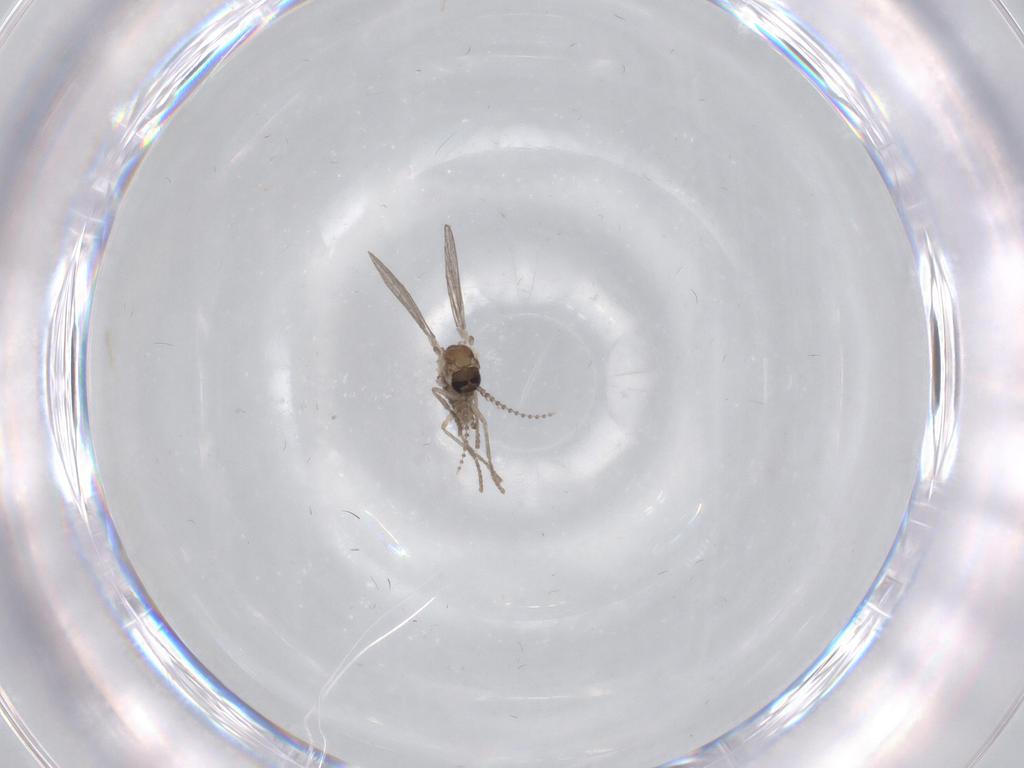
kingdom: Animalia
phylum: Arthropoda
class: Insecta
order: Diptera
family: Psychodidae
